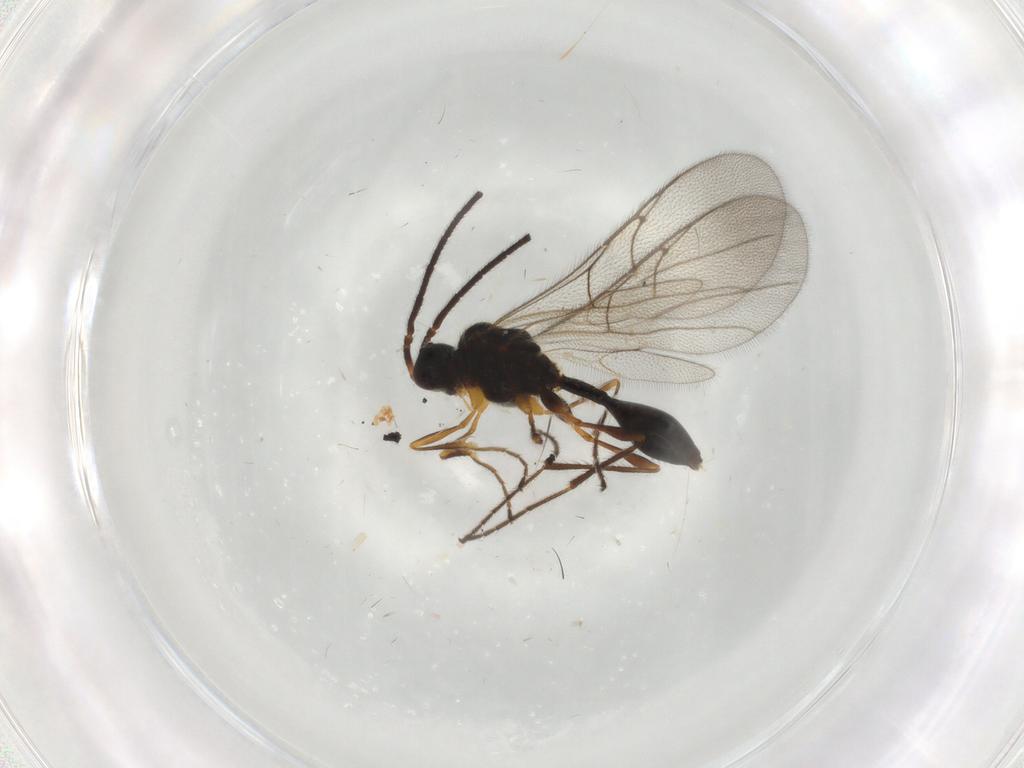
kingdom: Animalia
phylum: Arthropoda
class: Insecta
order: Hymenoptera
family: Diapriidae
